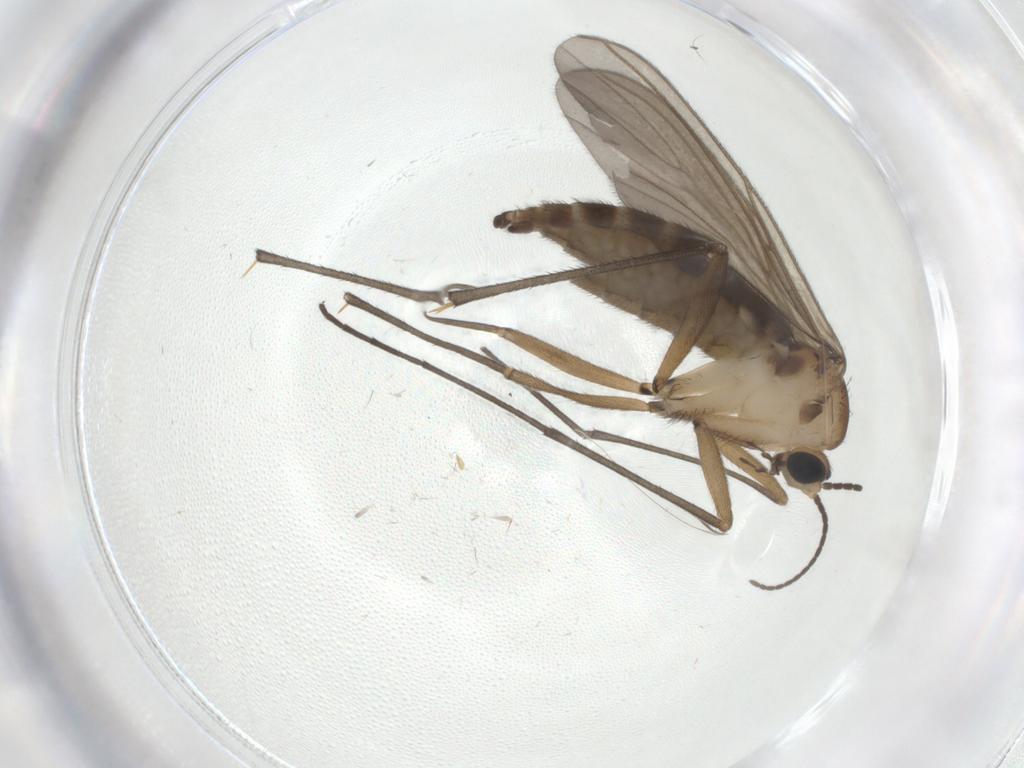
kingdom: Animalia
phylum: Arthropoda
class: Insecta
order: Diptera
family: Sciaridae
